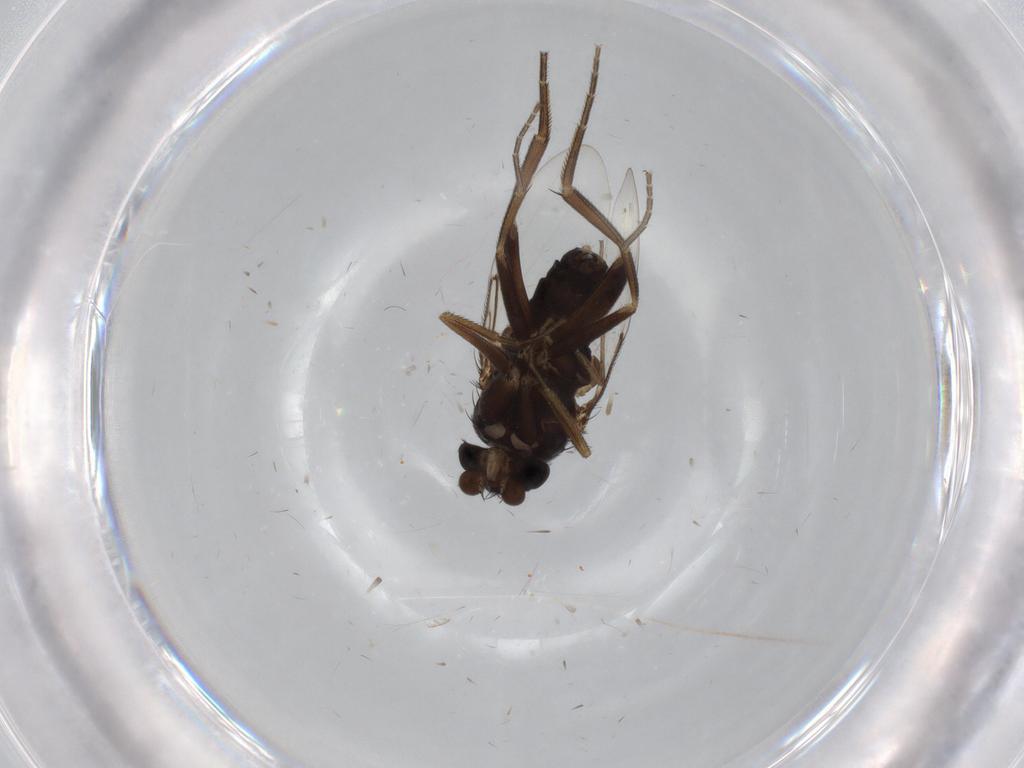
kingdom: Animalia
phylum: Arthropoda
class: Insecta
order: Diptera
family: Phoridae
